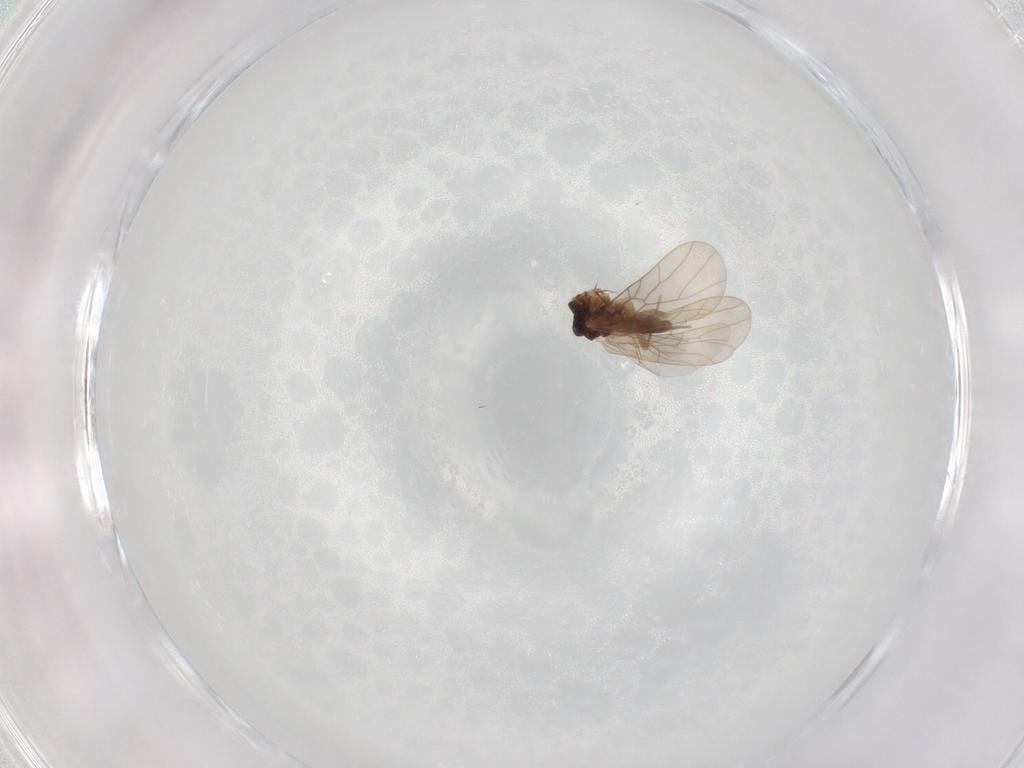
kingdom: Animalia
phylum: Arthropoda
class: Insecta
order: Psocodea
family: Lepidopsocidae
